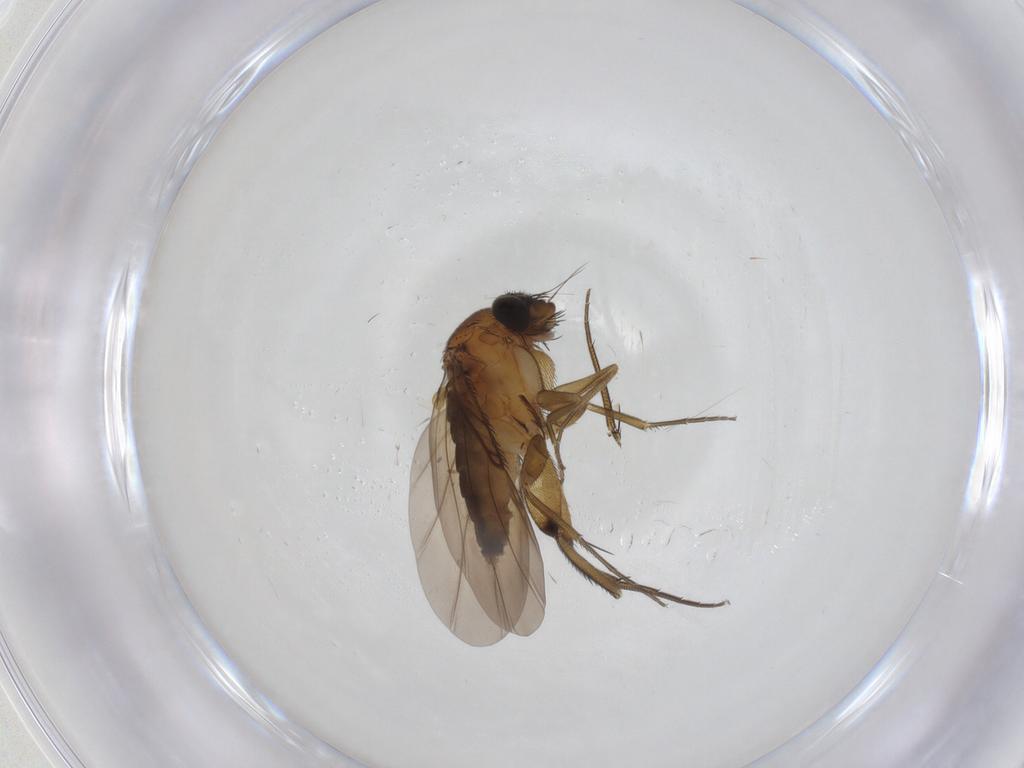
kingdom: Animalia
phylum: Arthropoda
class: Insecta
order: Diptera
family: Phoridae
